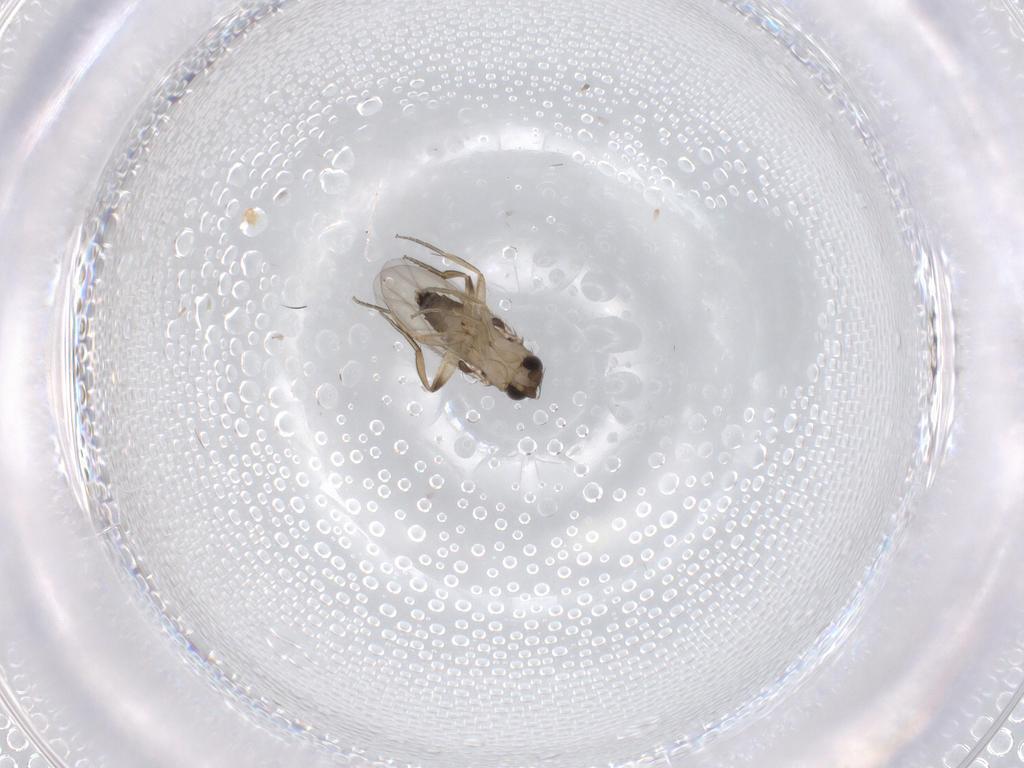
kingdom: Animalia
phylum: Arthropoda
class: Insecta
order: Diptera
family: Phoridae
